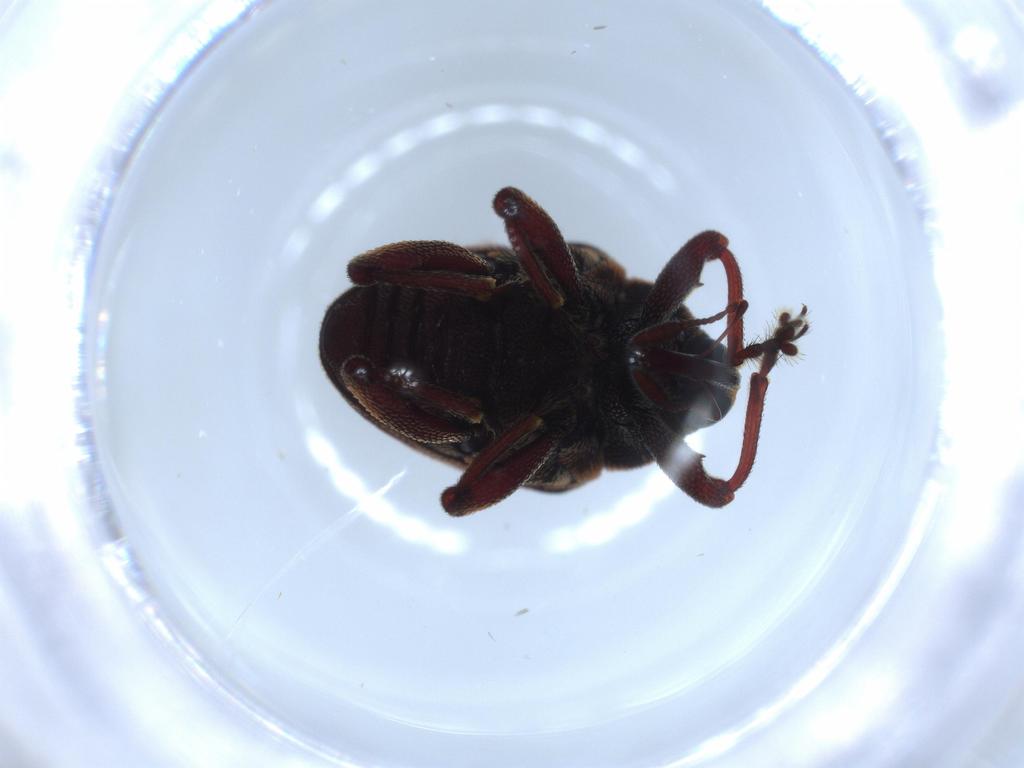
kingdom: Animalia
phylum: Arthropoda
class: Insecta
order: Coleoptera
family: Curculionidae
